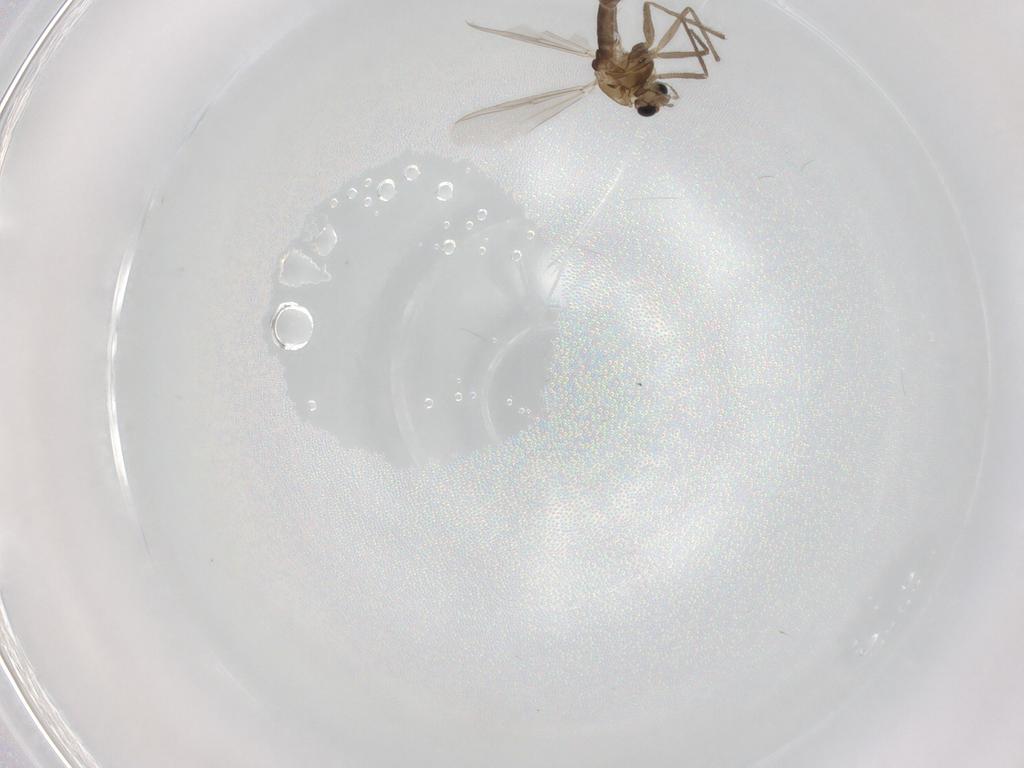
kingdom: Animalia
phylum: Arthropoda
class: Insecta
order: Diptera
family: Chironomidae
